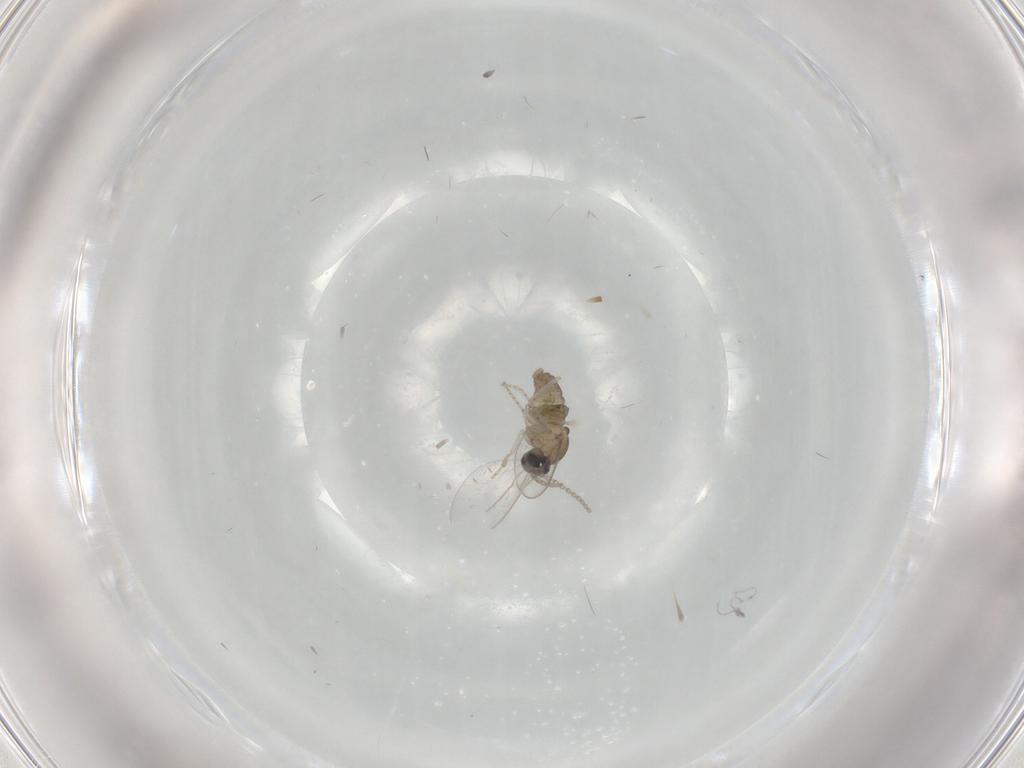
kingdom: Animalia
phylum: Arthropoda
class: Insecta
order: Diptera
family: Cecidomyiidae
